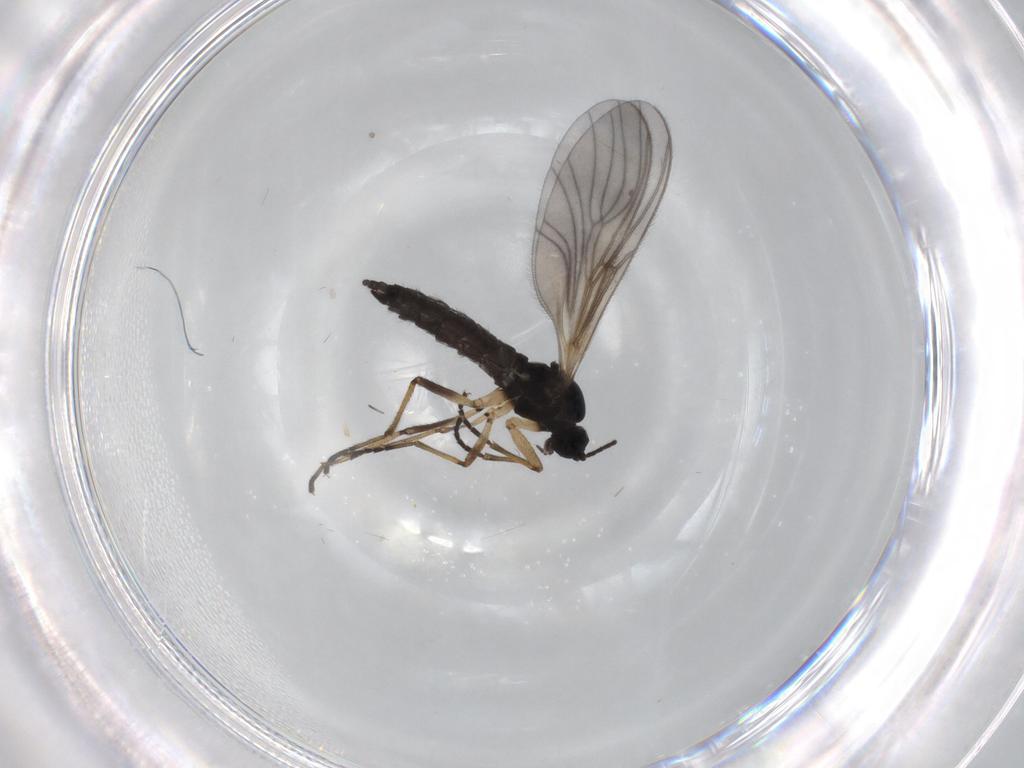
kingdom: Animalia
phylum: Arthropoda
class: Insecta
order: Diptera
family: Sciaridae
